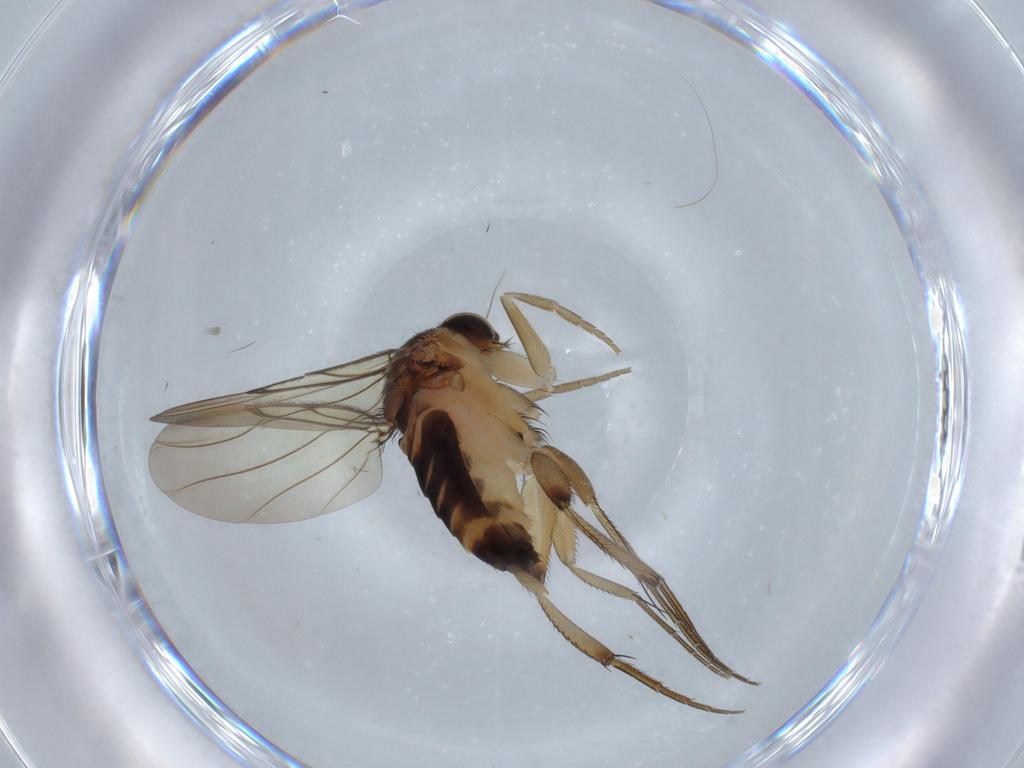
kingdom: Animalia
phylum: Arthropoda
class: Insecta
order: Diptera
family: Phoridae
